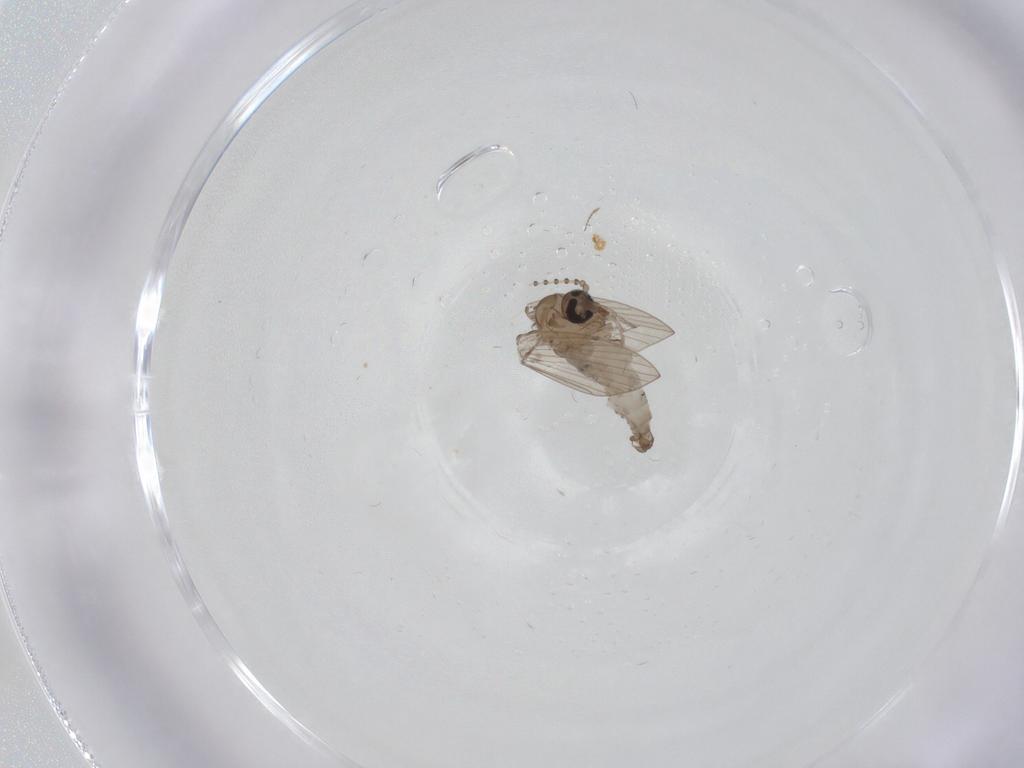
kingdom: Animalia
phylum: Arthropoda
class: Insecta
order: Diptera
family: Psychodidae
